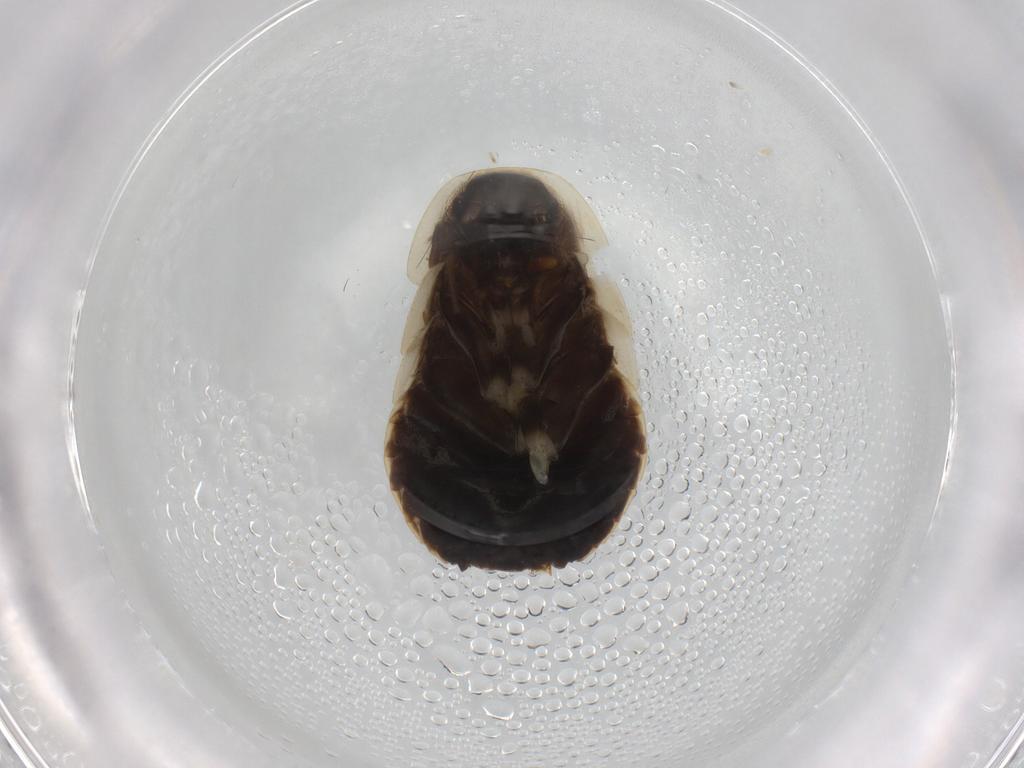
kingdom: Animalia
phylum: Arthropoda
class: Insecta
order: Blattodea
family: Ectobiidae
